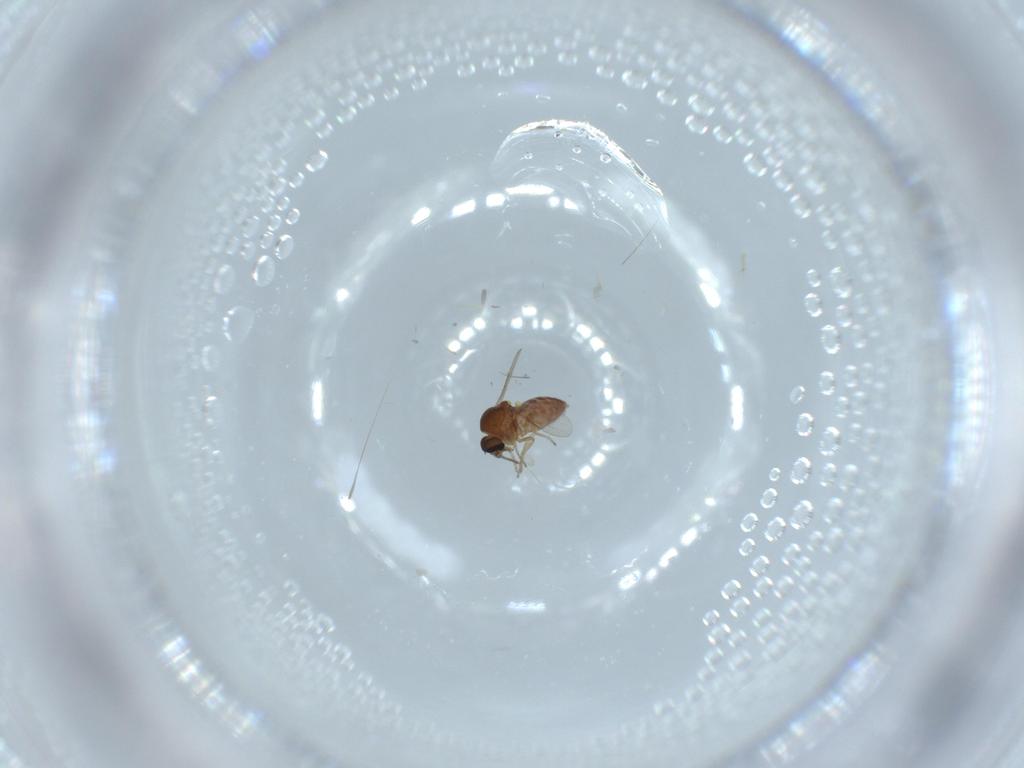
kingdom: Animalia
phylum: Arthropoda
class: Insecta
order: Diptera
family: Ceratopogonidae
